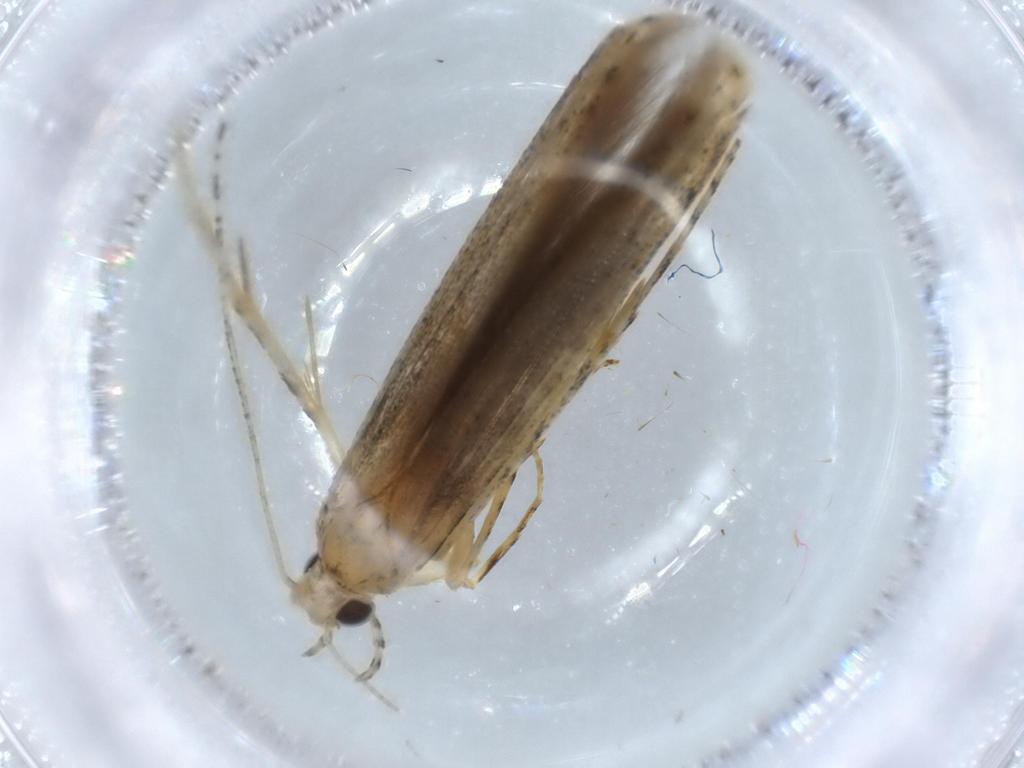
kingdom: Animalia
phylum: Arthropoda
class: Insecta
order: Lepidoptera
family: Batrachedridae
